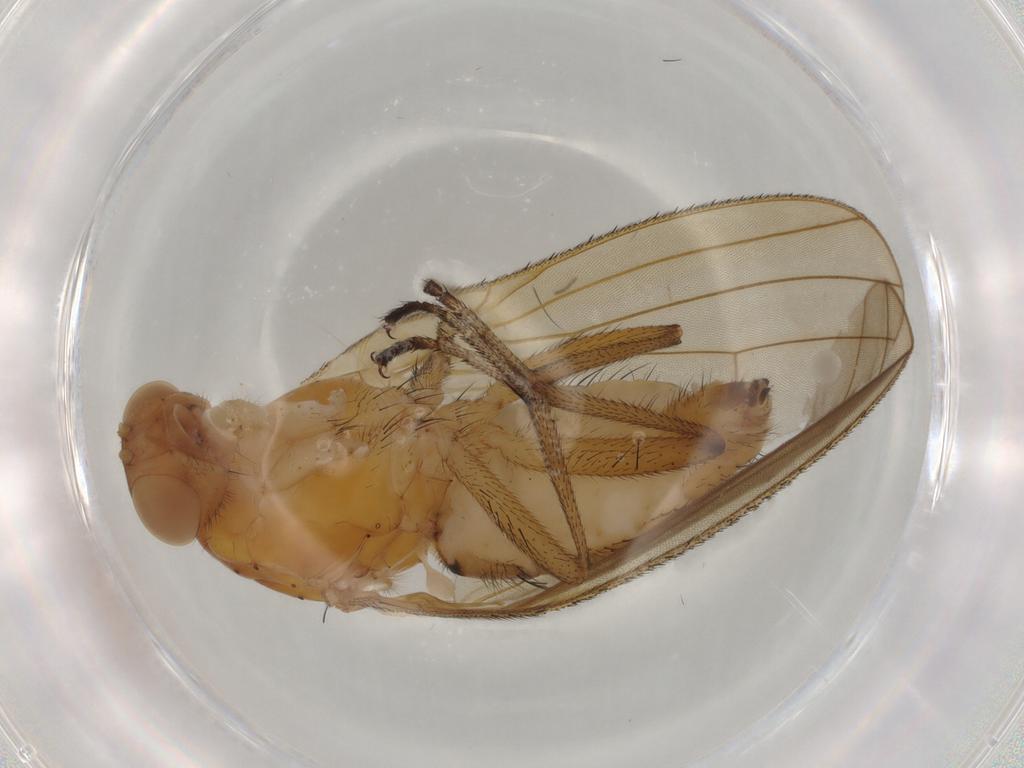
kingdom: Animalia
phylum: Arthropoda
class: Insecta
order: Diptera
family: Heleomyzidae
